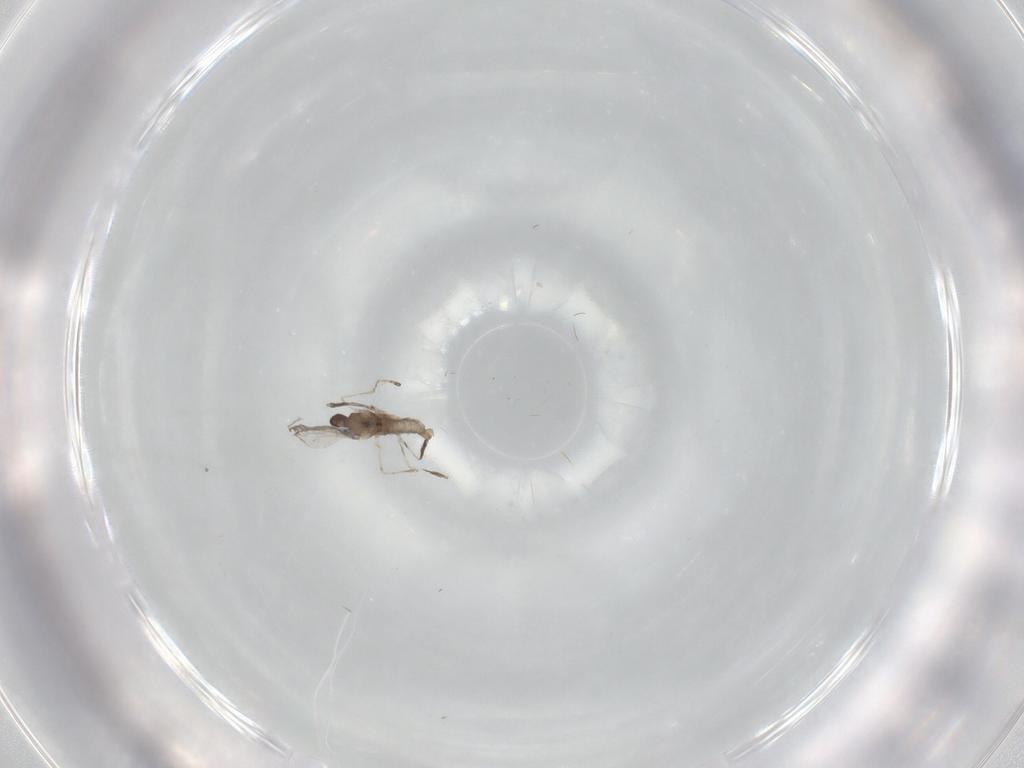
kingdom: Animalia
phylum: Arthropoda
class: Insecta
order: Diptera
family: Cecidomyiidae
